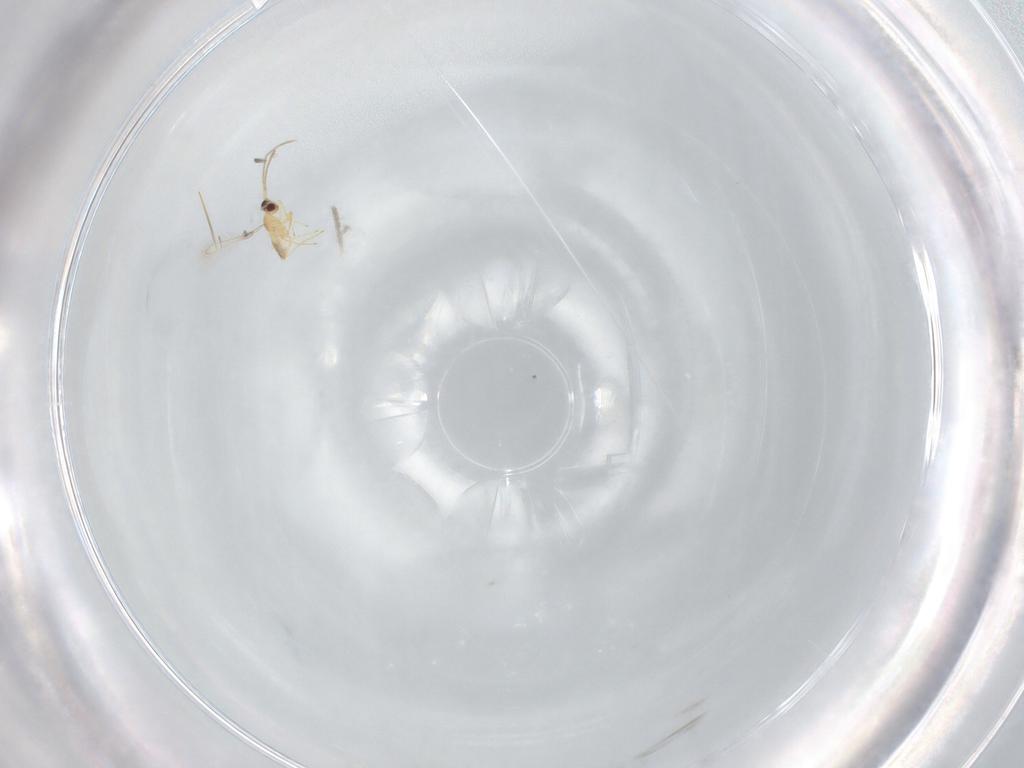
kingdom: Animalia
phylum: Arthropoda
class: Insecta
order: Hymenoptera
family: Mymaridae
